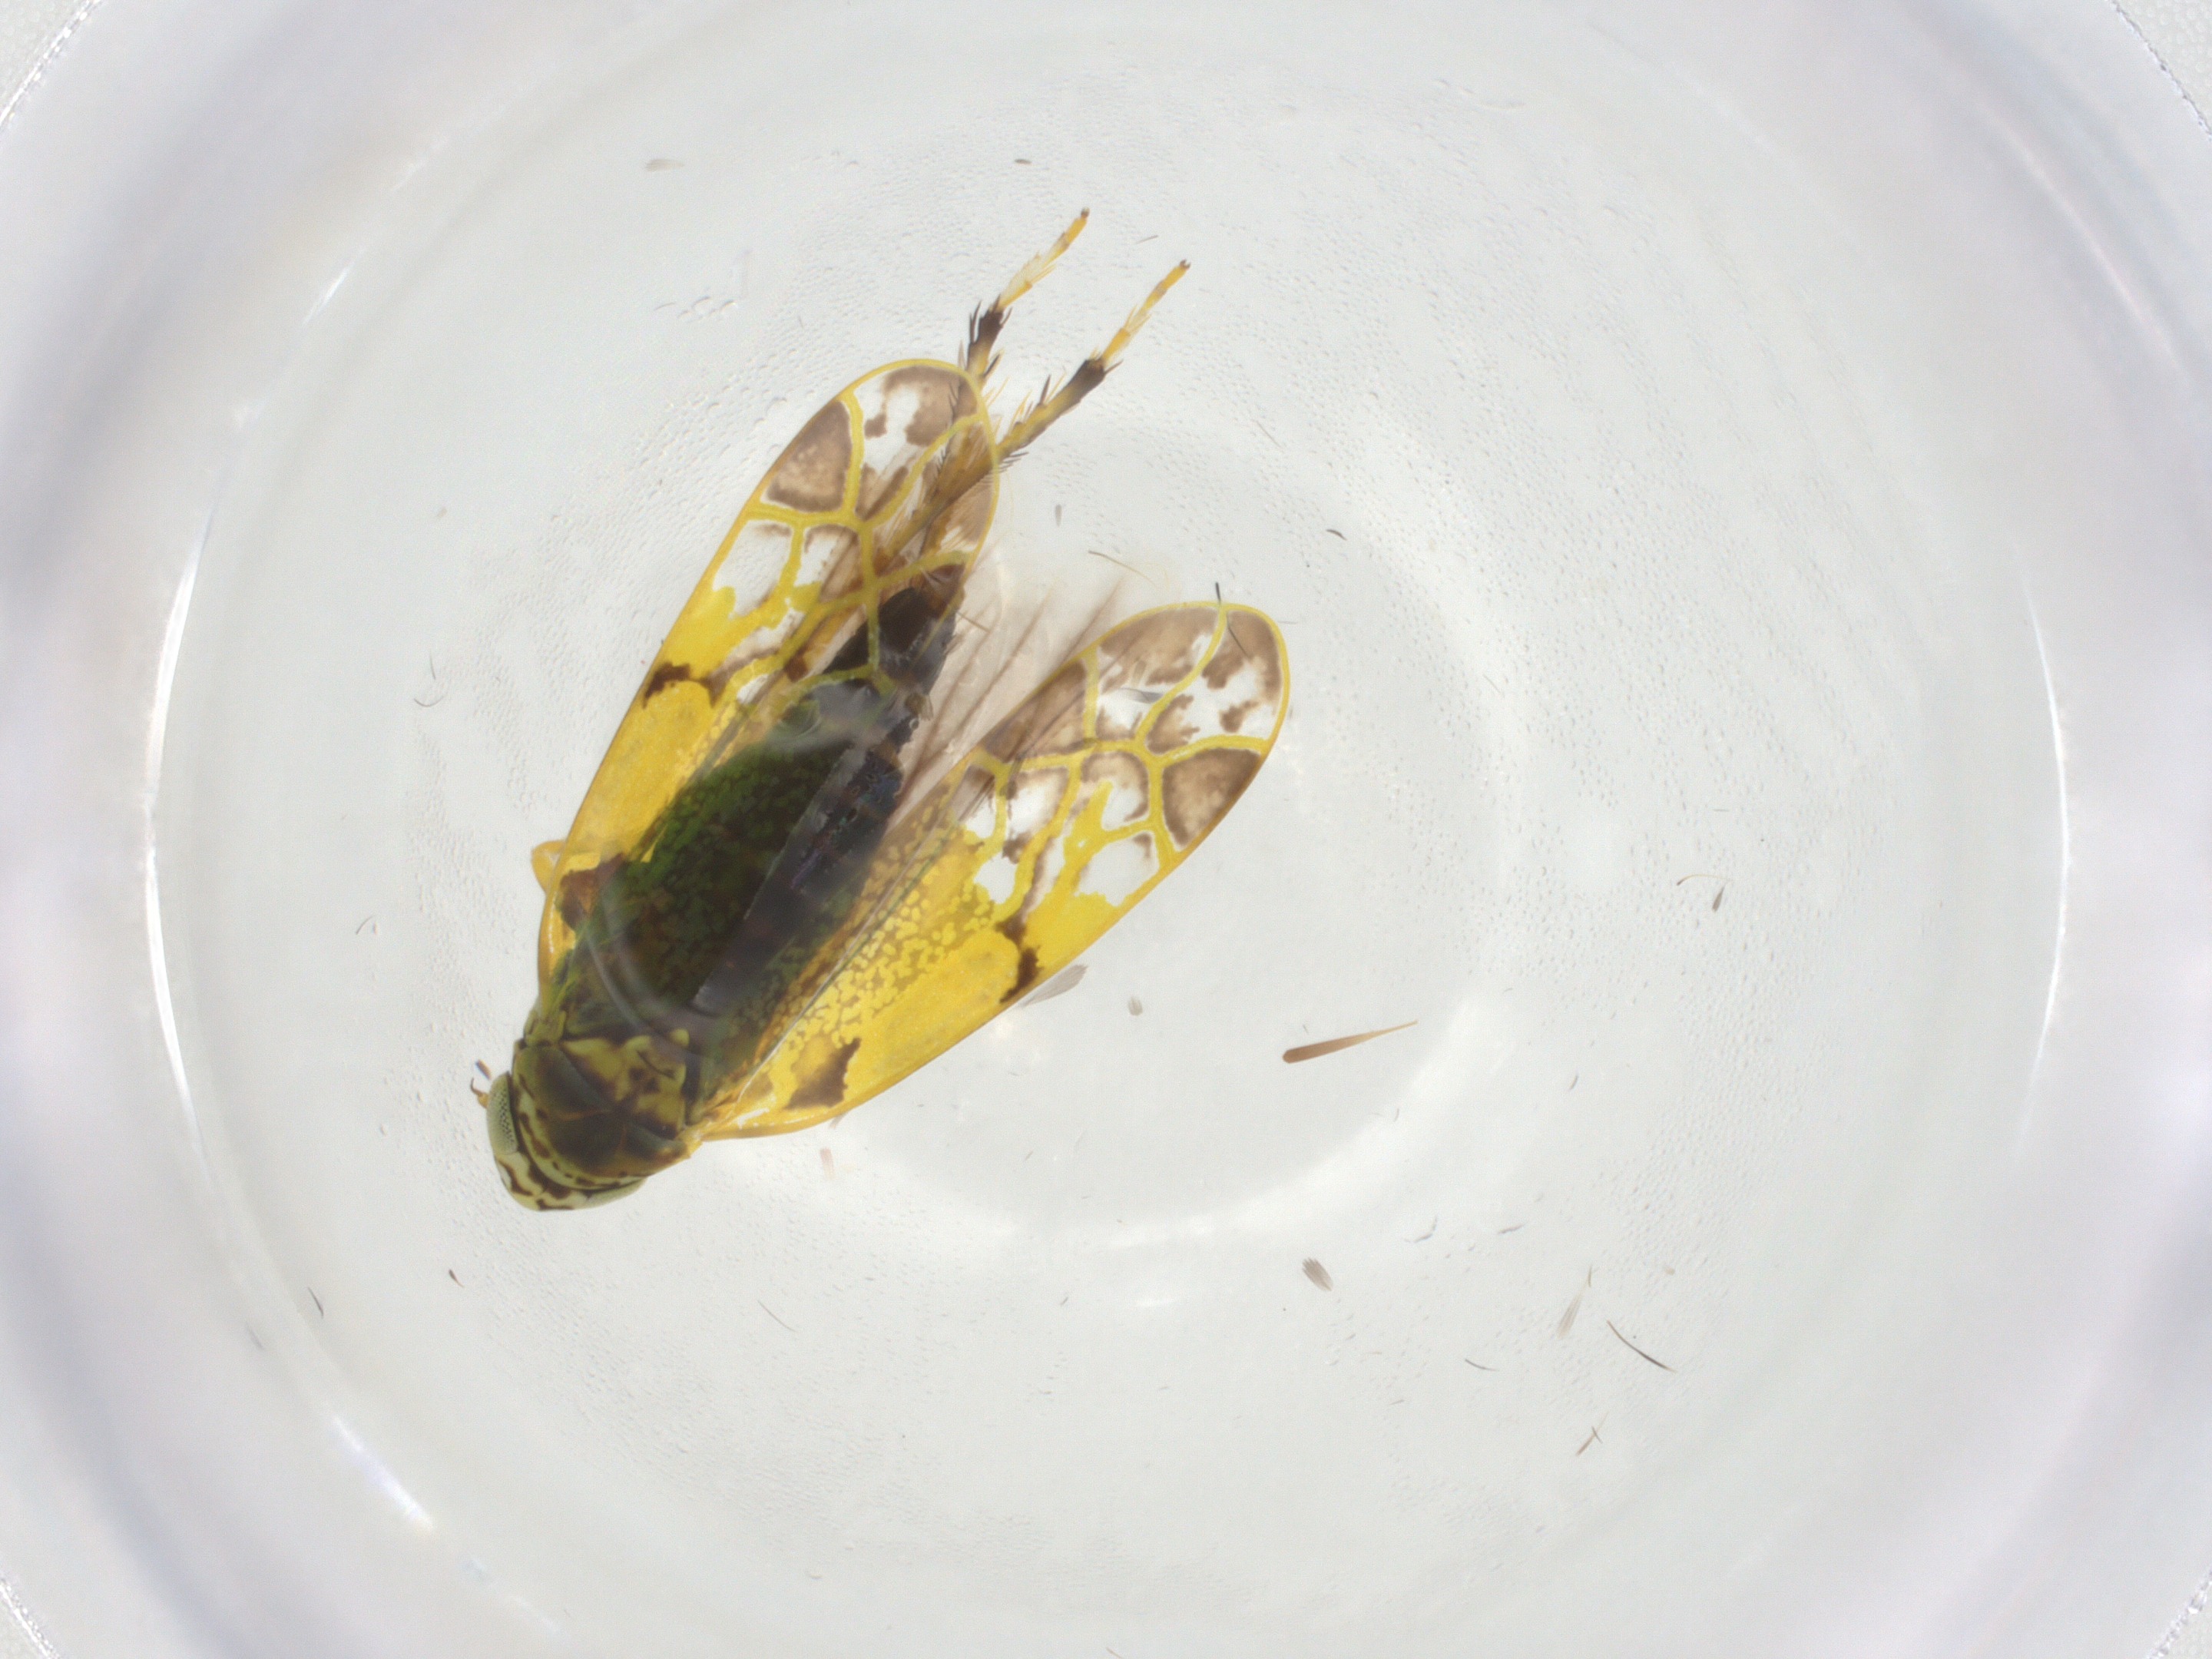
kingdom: Animalia
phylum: Arthropoda
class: Insecta
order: Hemiptera
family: Cicadellidae
